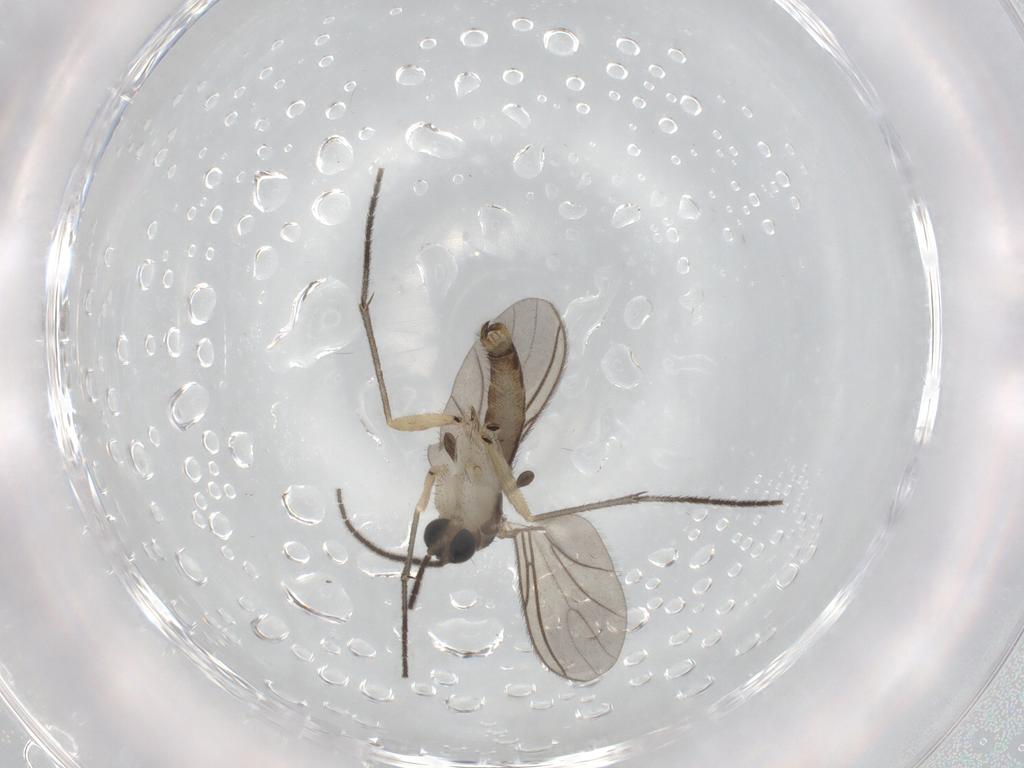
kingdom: Animalia
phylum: Arthropoda
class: Insecta
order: Diptera
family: Sciaridae
